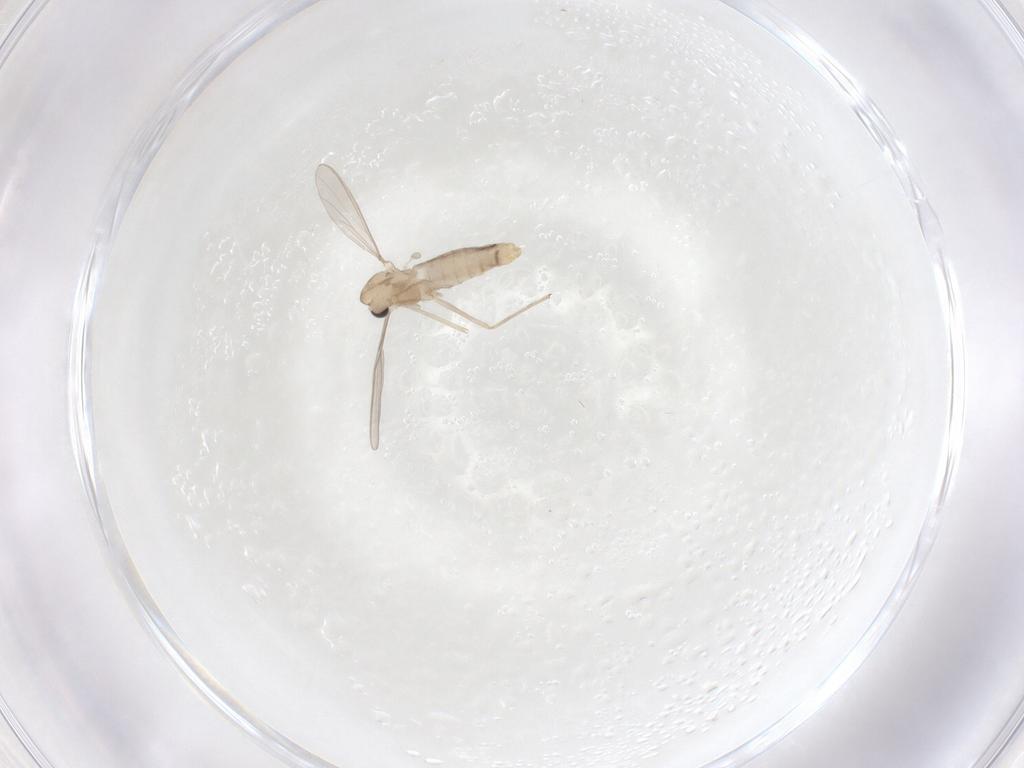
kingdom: Animalia
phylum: Arthropoda
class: Insecta
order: Diptera
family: Chironomidae
